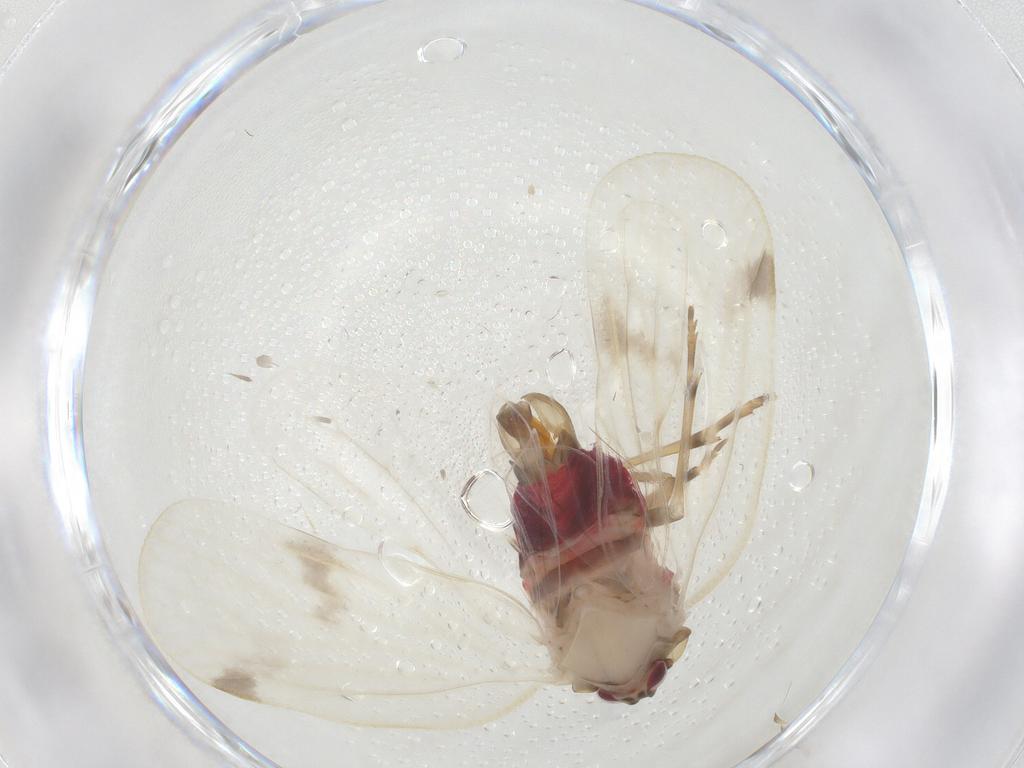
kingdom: Animalia
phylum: Arthropoda
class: Insecta
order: Hemiptera
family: Achilidae
